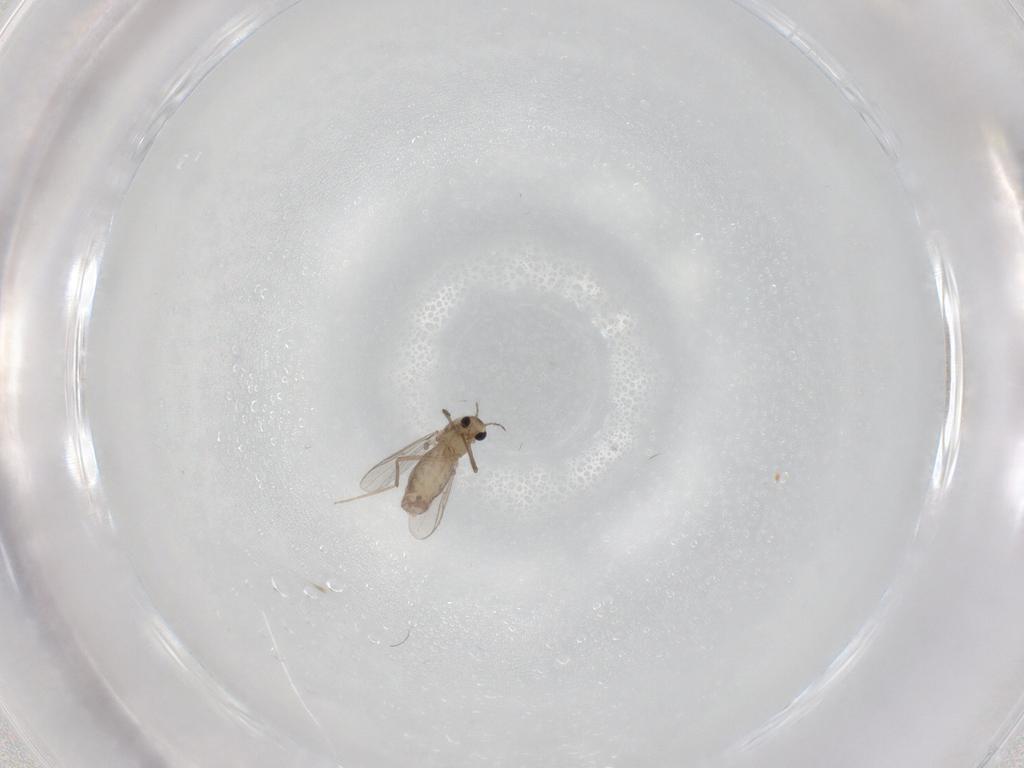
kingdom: Animalia
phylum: Arthropoda
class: Insecta
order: Diptera
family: Chironomidae
